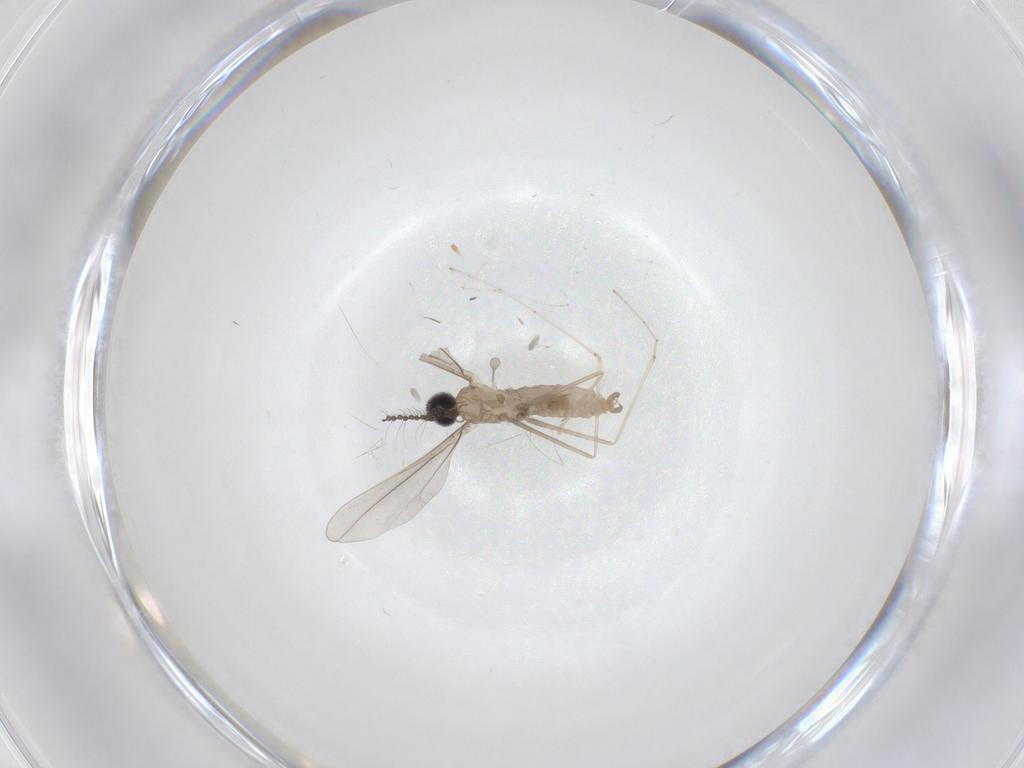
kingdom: Animalia
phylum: Arthropoda
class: Insecta
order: Diptera
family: Cecidomyiidae
